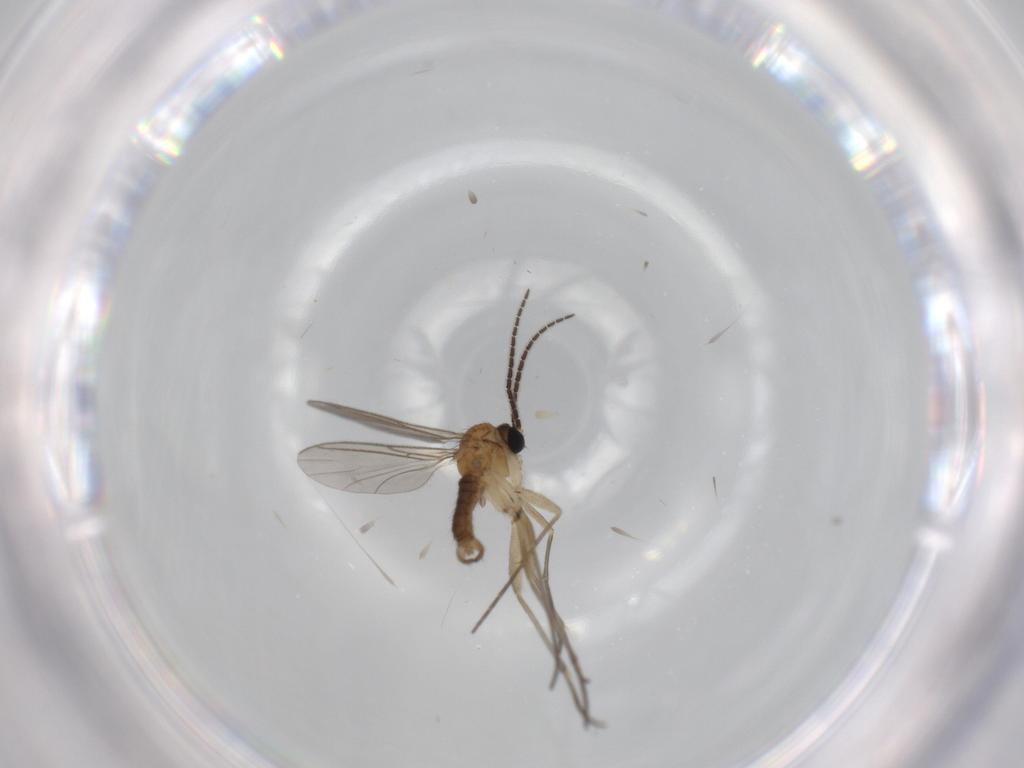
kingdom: Animalia
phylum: Arthropoda
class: Insecta
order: Diptera
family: Sciaridae
